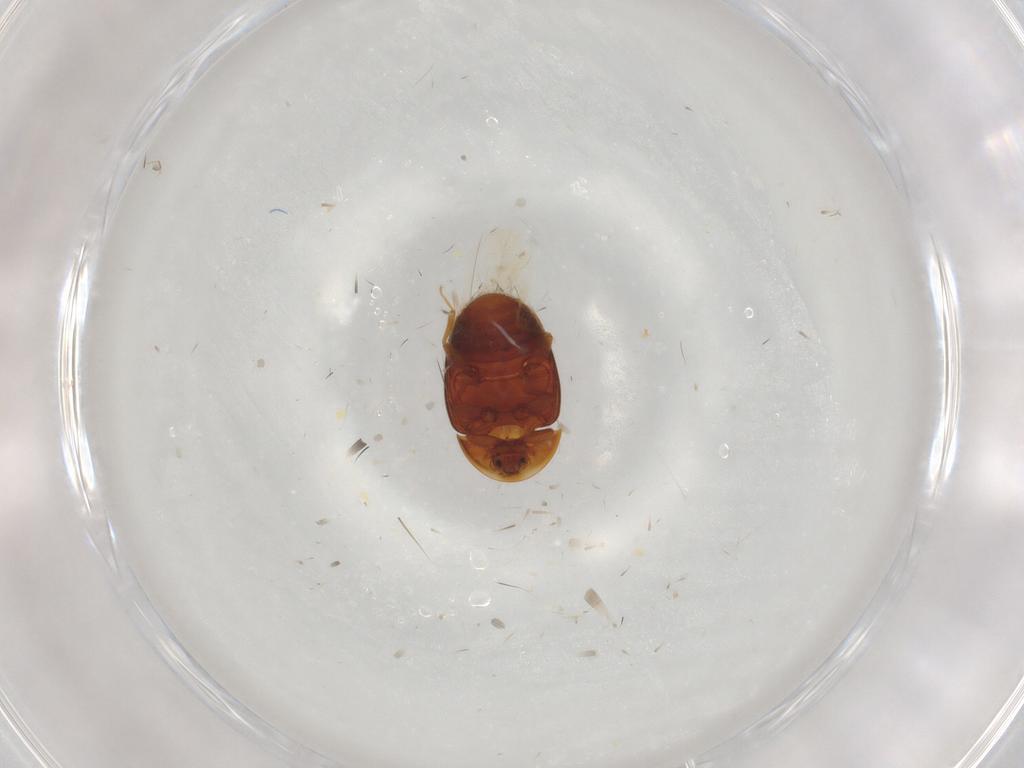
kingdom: Animalia
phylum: Arthropoda
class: Insecta
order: Coleoptera
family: Corylophidae
